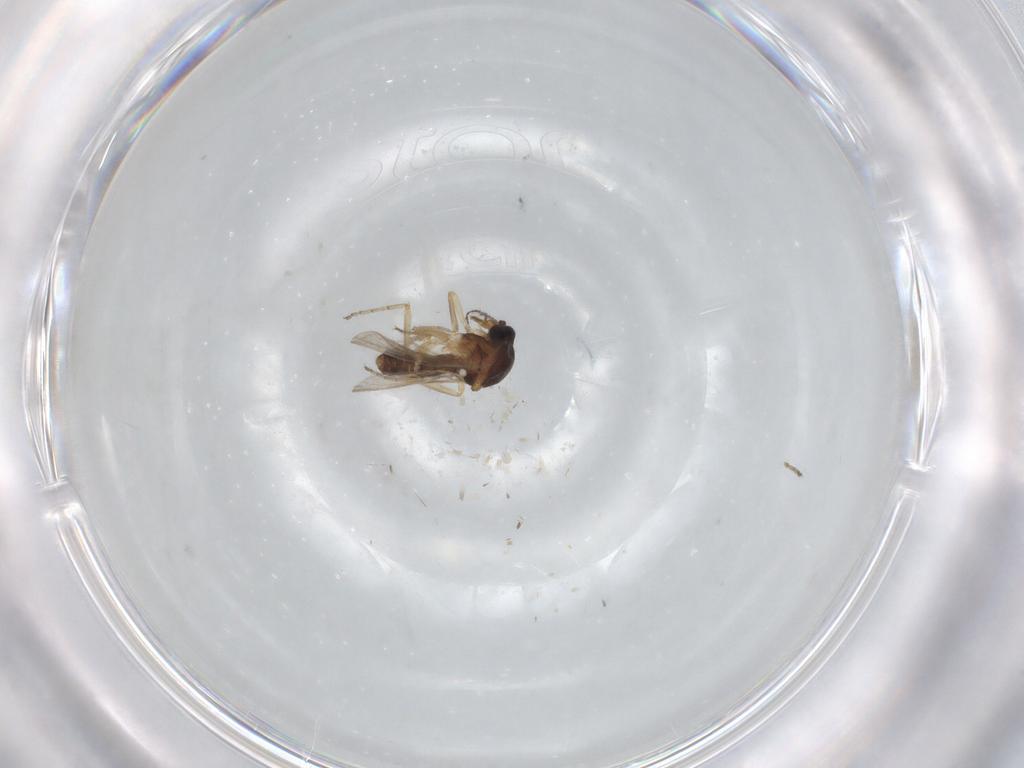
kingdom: Animalia
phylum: Arthropoda
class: Insecta
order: Diptera
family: Ceratopogonidae
